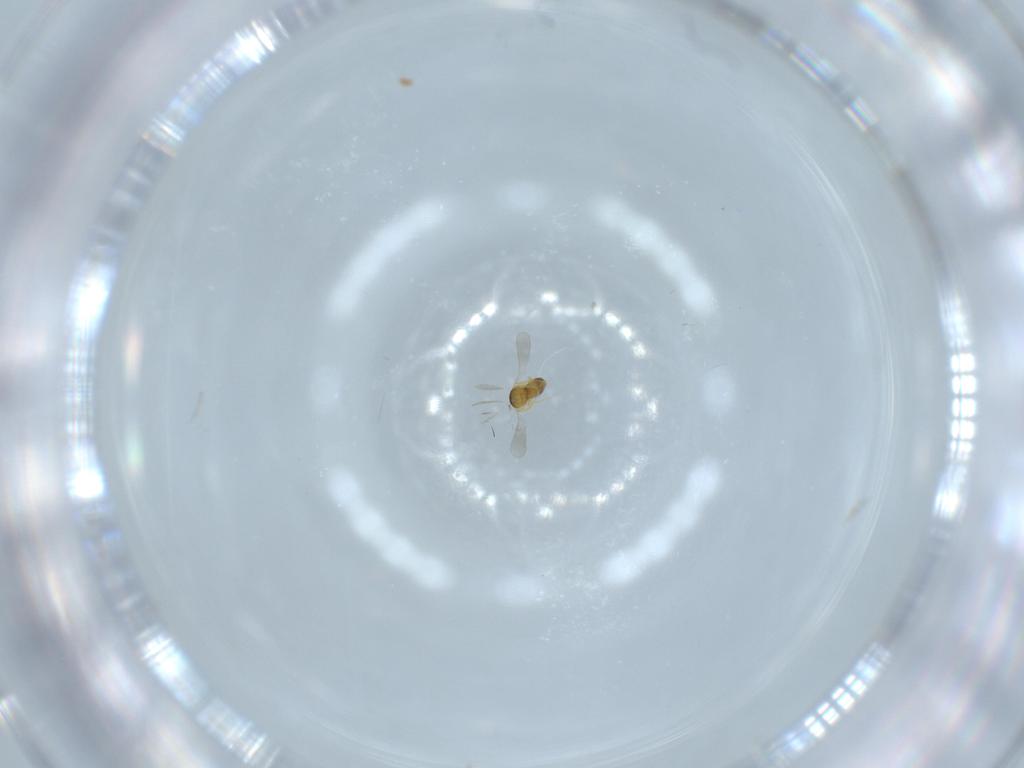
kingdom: Animalia
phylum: Arthropoda
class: Insecta
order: Hymenoptera
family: Platygastridae
